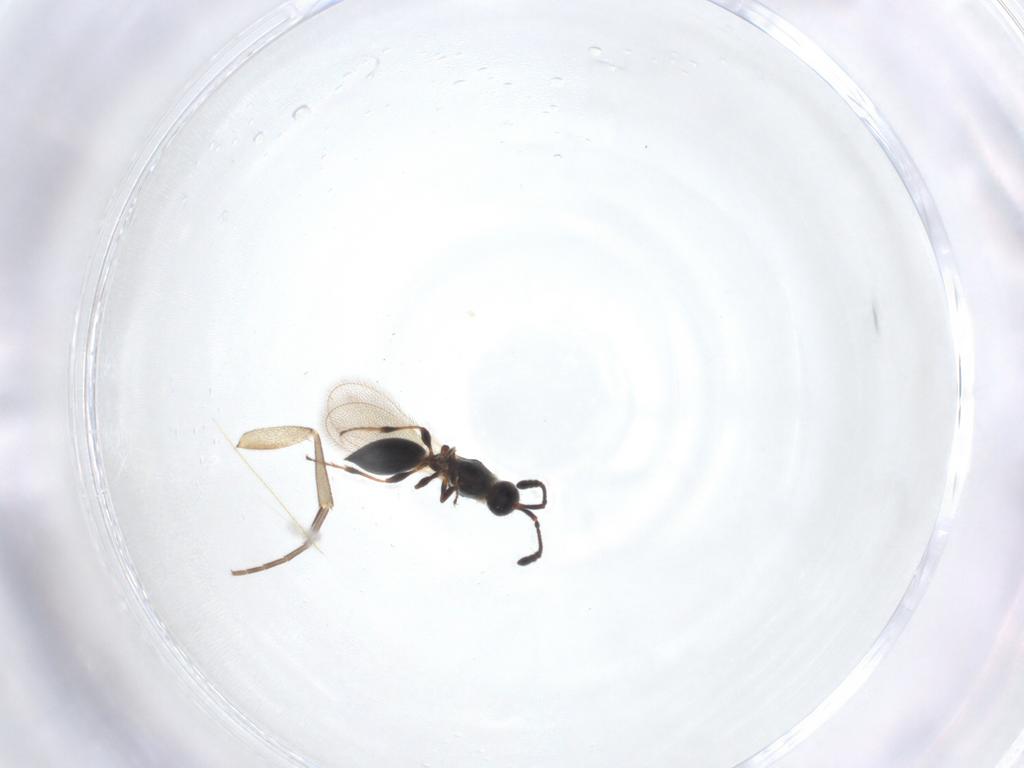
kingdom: Animalia
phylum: Arthropoda
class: Insecta
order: Hymenoptera
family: Diapriidae
